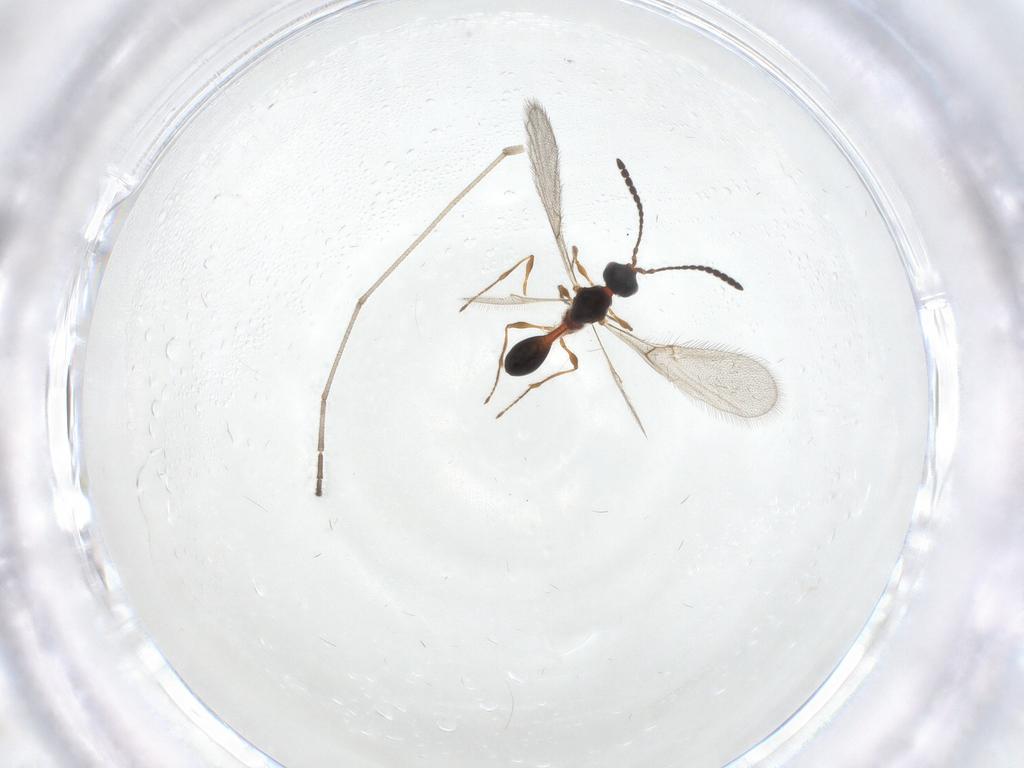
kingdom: Animalia
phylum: Arthropoda
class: Insecta
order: Hymenoptera
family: Diapriidae
